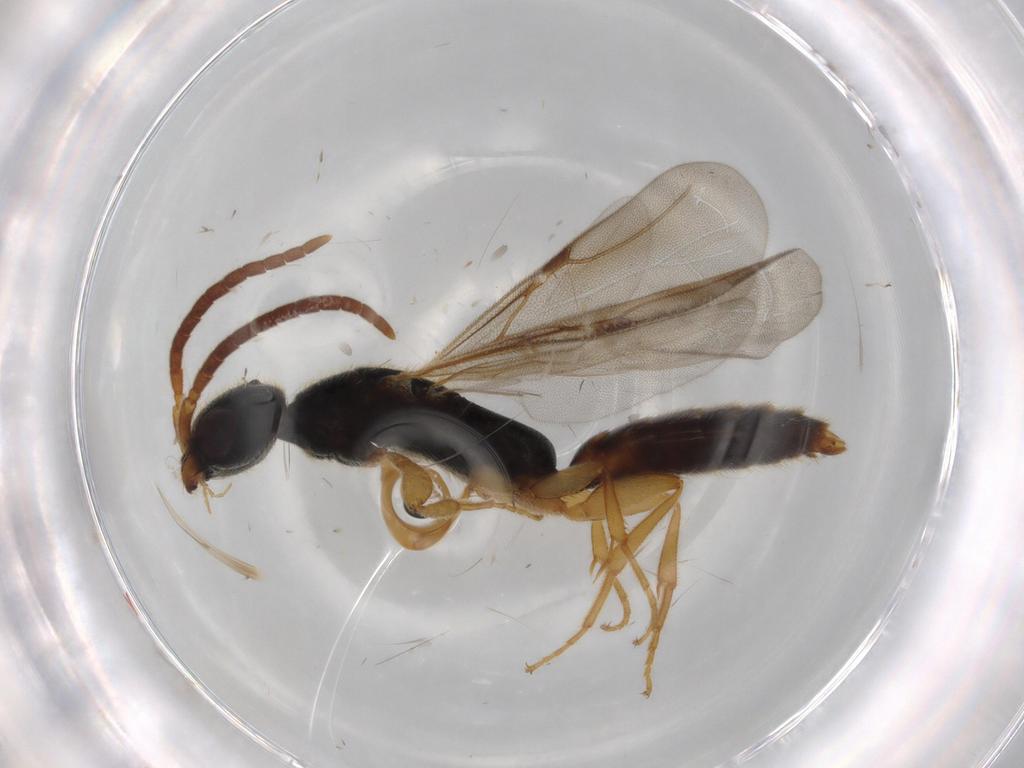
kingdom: Animalia
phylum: Arthropoda
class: Insecta
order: Hymenoptera
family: Bethylidae
